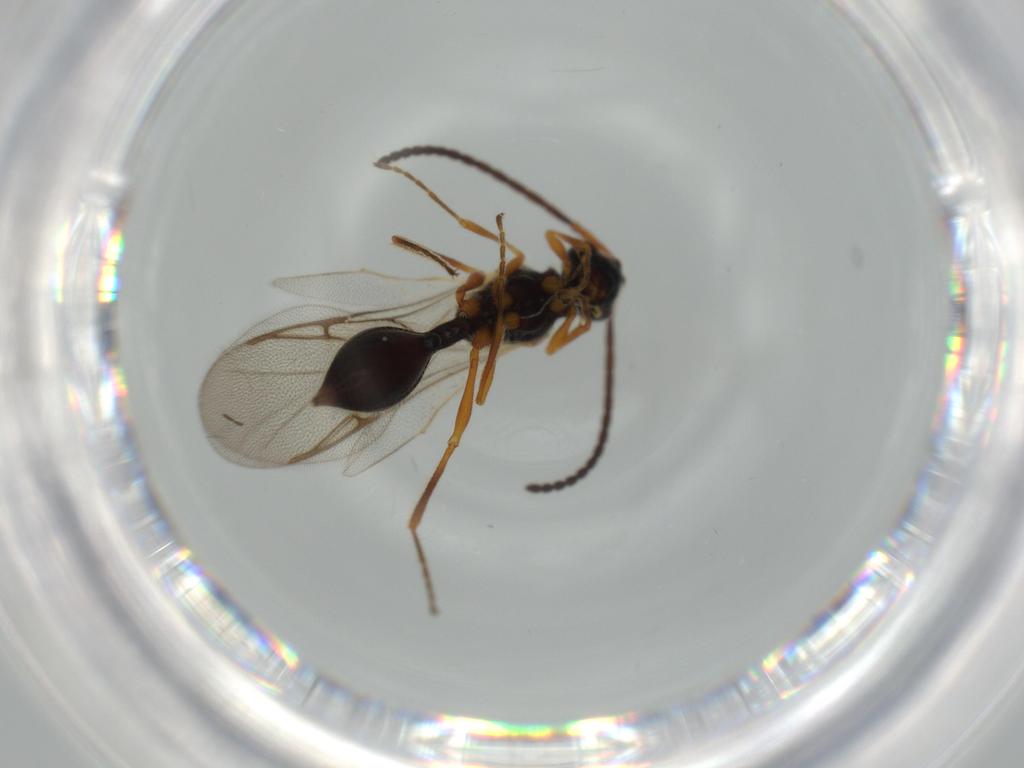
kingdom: Animalia
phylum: Arthropoda
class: Insecta
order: Hymenoptera
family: Diapriidae
